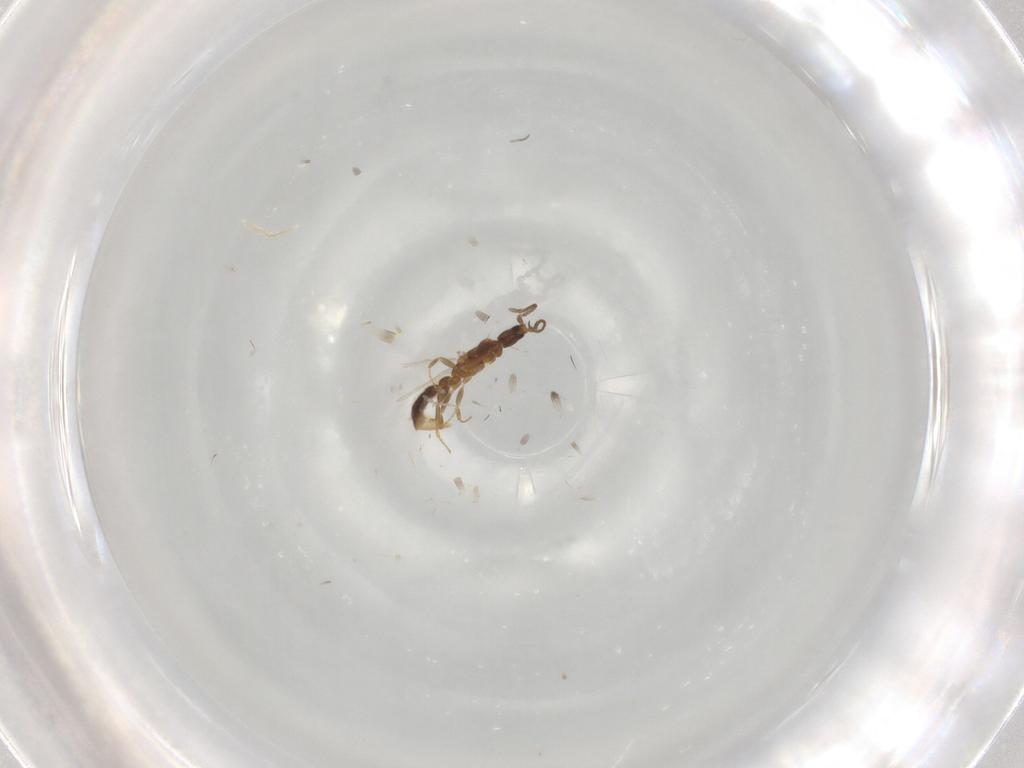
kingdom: Animalia
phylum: Arthropoda
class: Insecta
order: Hymenoptera
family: Formicidae
